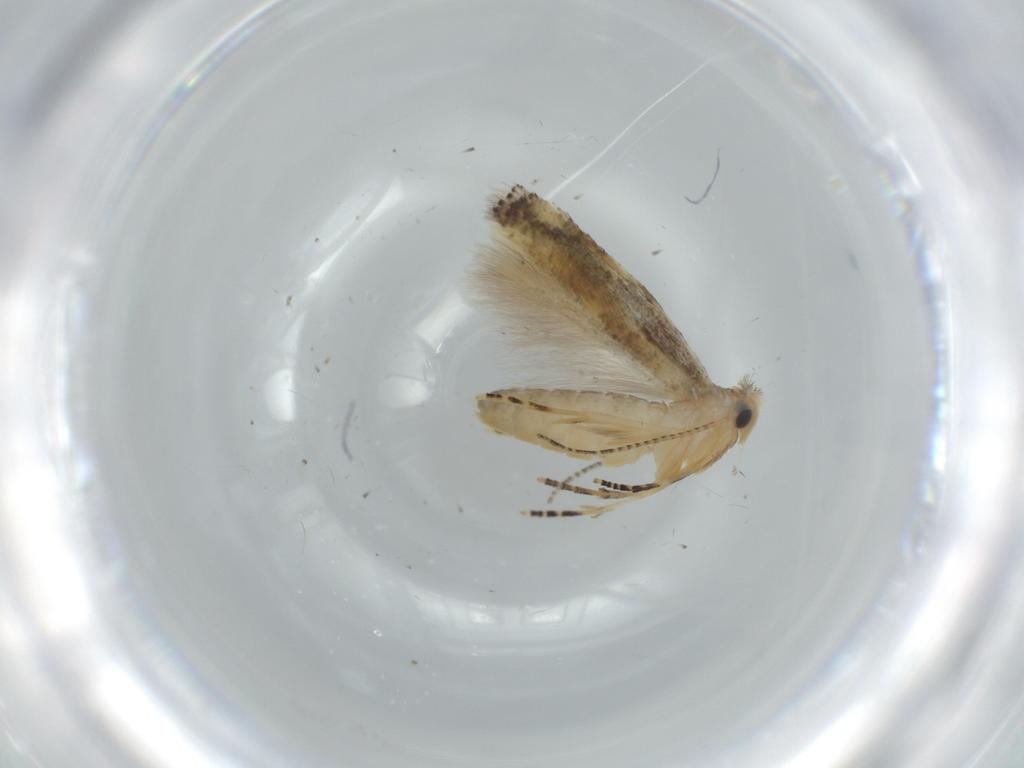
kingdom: Animalia
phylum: Arthropoda
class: Insecta
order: Lepidoptera
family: Bucculatricidae
